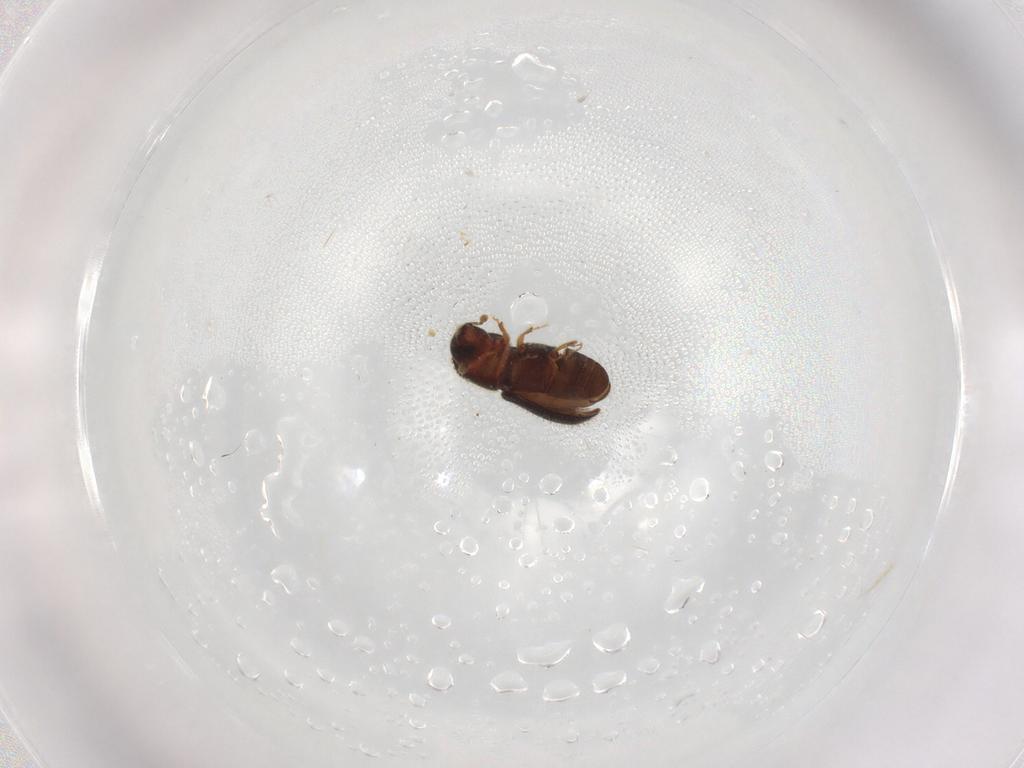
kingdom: Animalia
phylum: Arthropoda
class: Insecta
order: Coleoptera
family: Curculionidae
